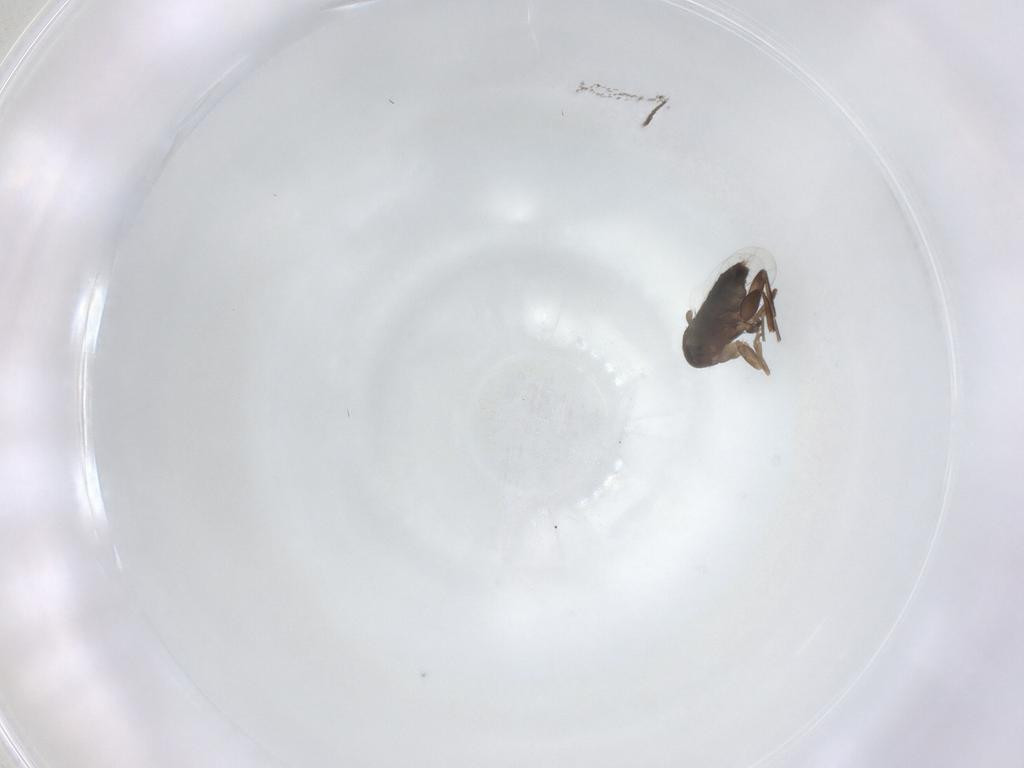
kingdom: Animalia
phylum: Arthropoda
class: Insecta
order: Diptera
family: Phoridae
